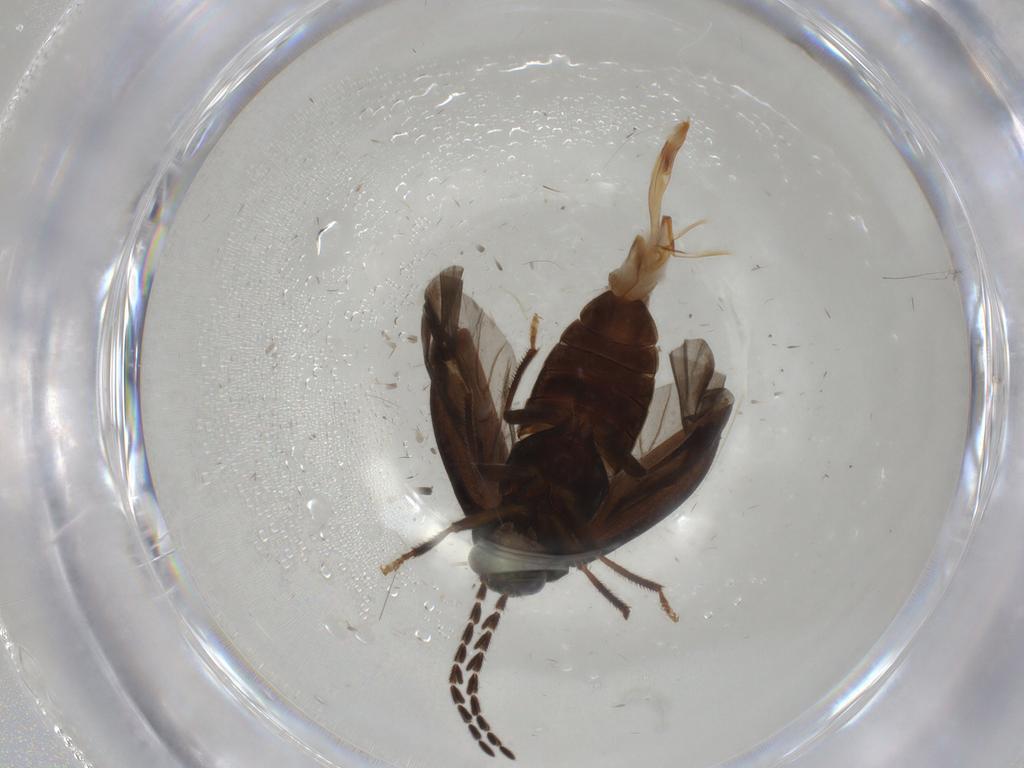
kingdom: Animalia
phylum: Arthropoda
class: Insecta
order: Coleoptera
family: Ptilodactylidae
